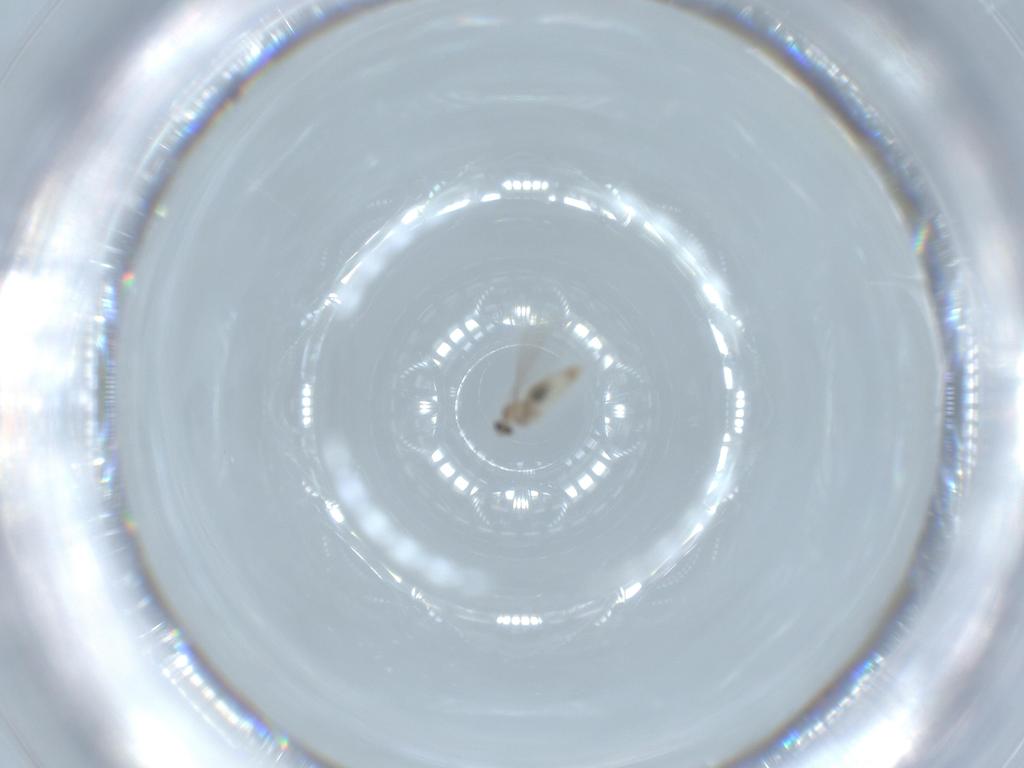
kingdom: Animalia
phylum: Arthropoda
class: Insecta
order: Diptera
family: Cecidomyiidae
